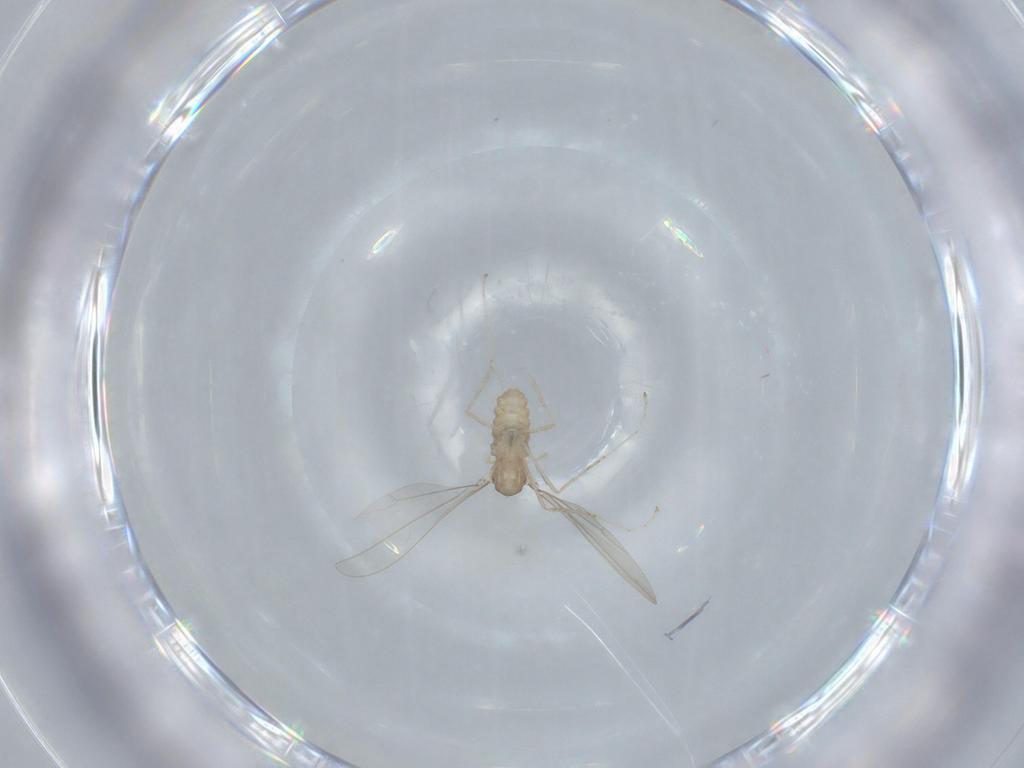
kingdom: Animalia
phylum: Arthropoda
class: Insecta
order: Diptera
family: Cecidomyiidae
